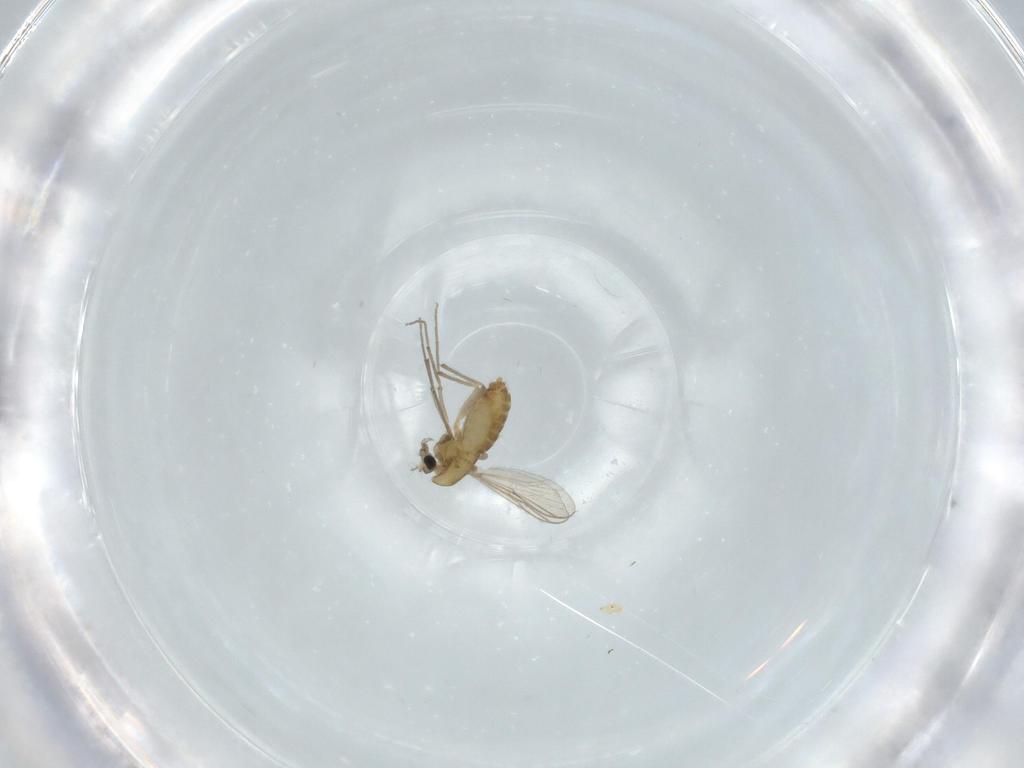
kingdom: Animalia
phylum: Arthropoda
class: Insecta
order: Diptera
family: Chironomidae
